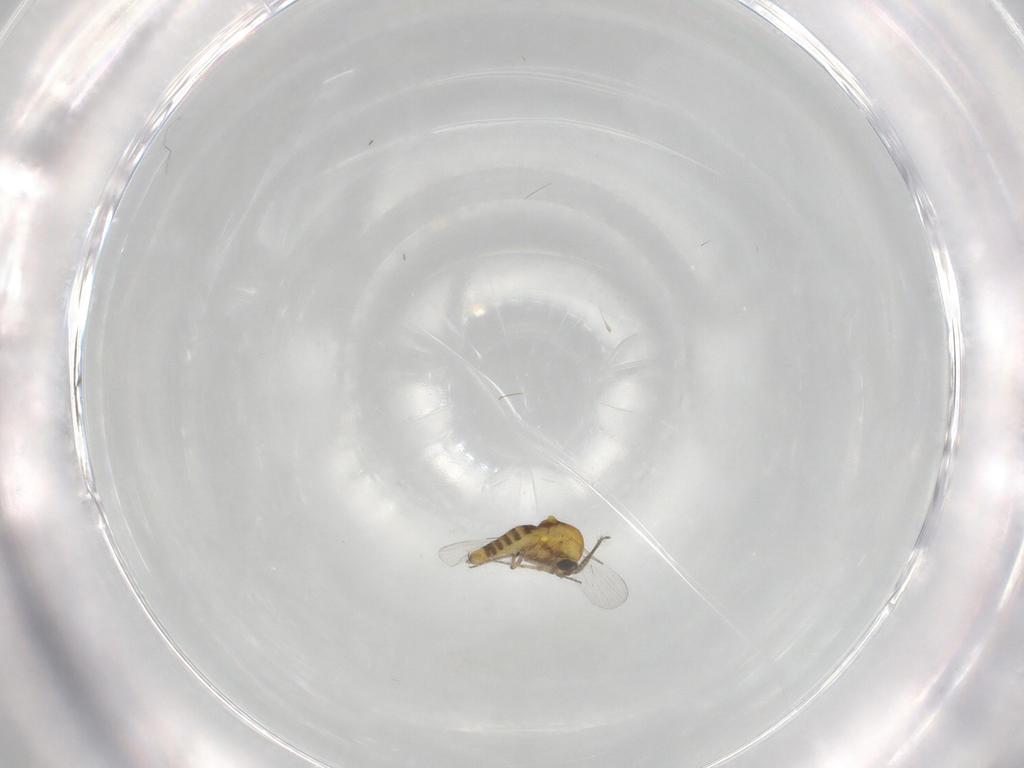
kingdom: Animalia
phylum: Arthropoda
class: Insecta
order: Diptera
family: Ceratopogonidae
